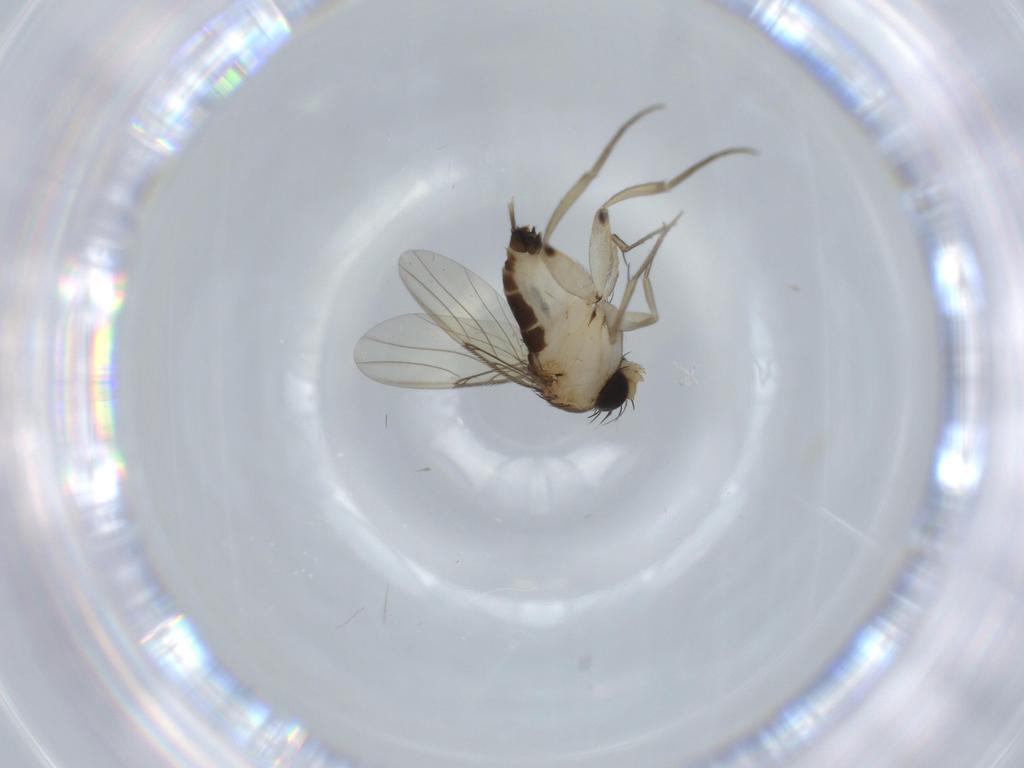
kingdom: Animalia
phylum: Arthropoda
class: Insecta
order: Diptera
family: Phoridae
